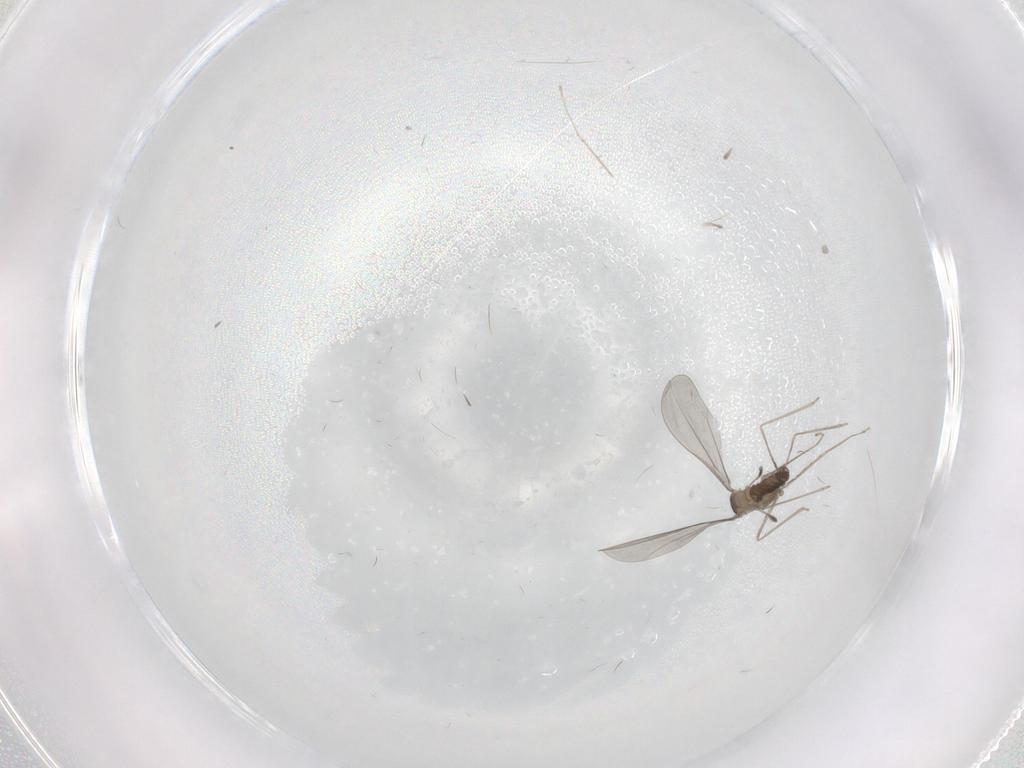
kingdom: Animalia
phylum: Arthropoda
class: Insecta
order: Diptera
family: Cecidomyiidae
